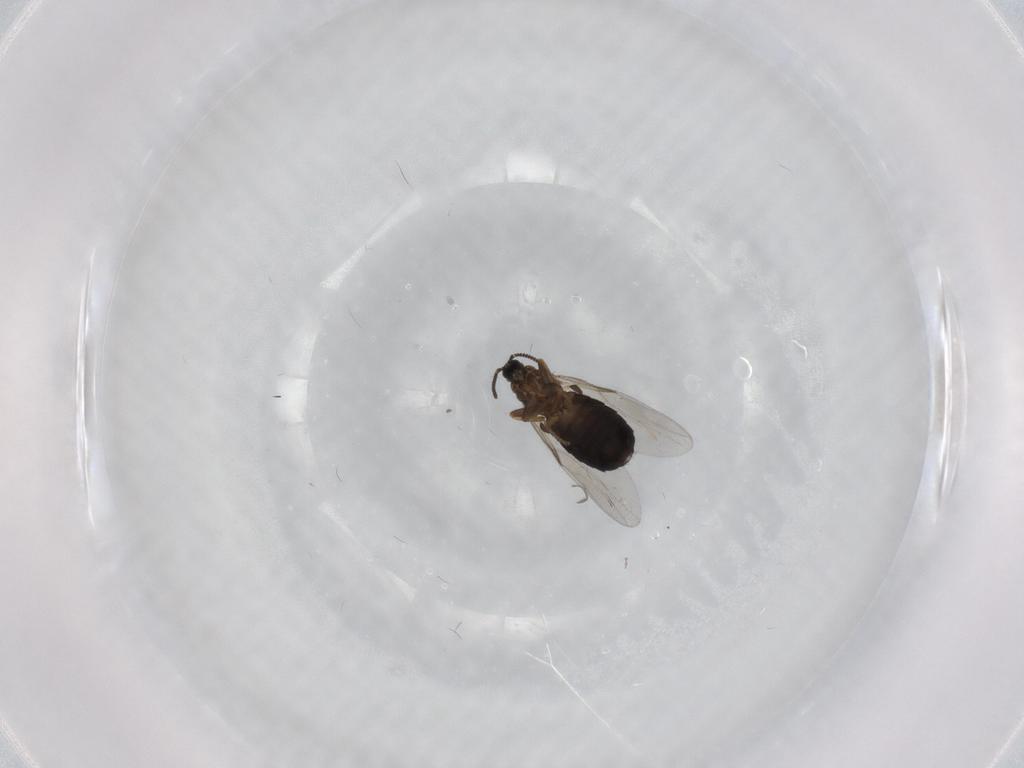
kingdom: Animalia
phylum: Arthropoda
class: Insecta
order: Diptera
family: Scatopsidae
